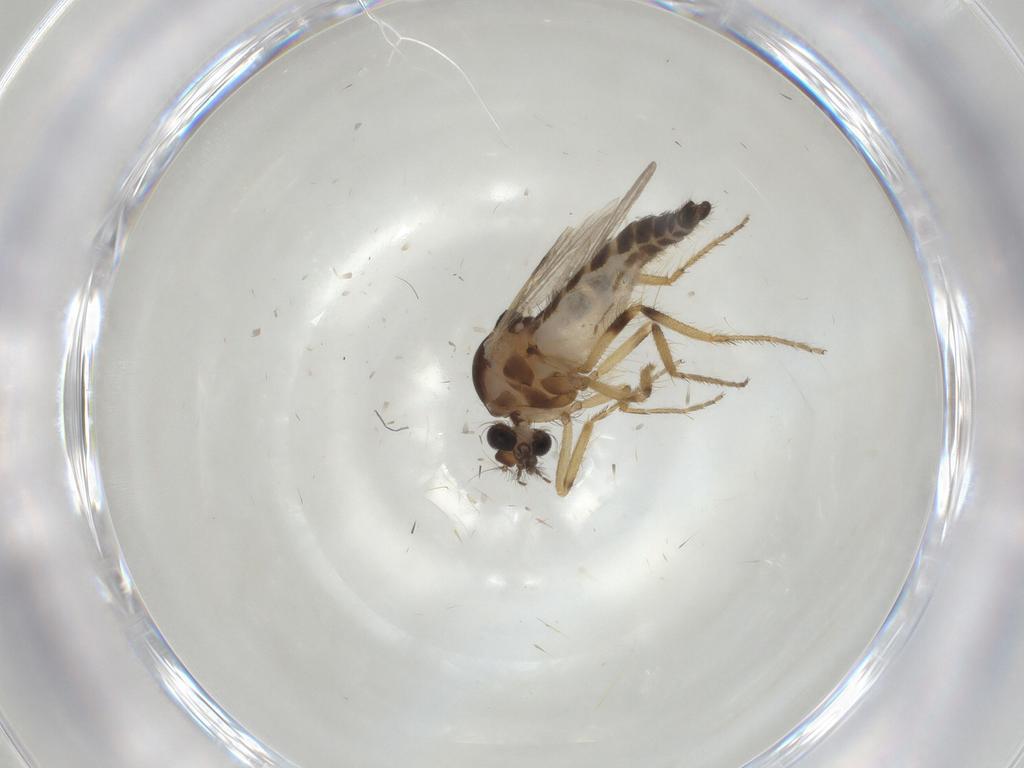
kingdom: Animalia
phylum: Arthropoda
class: Insecta
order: Diptera
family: Ceratopogonidae
